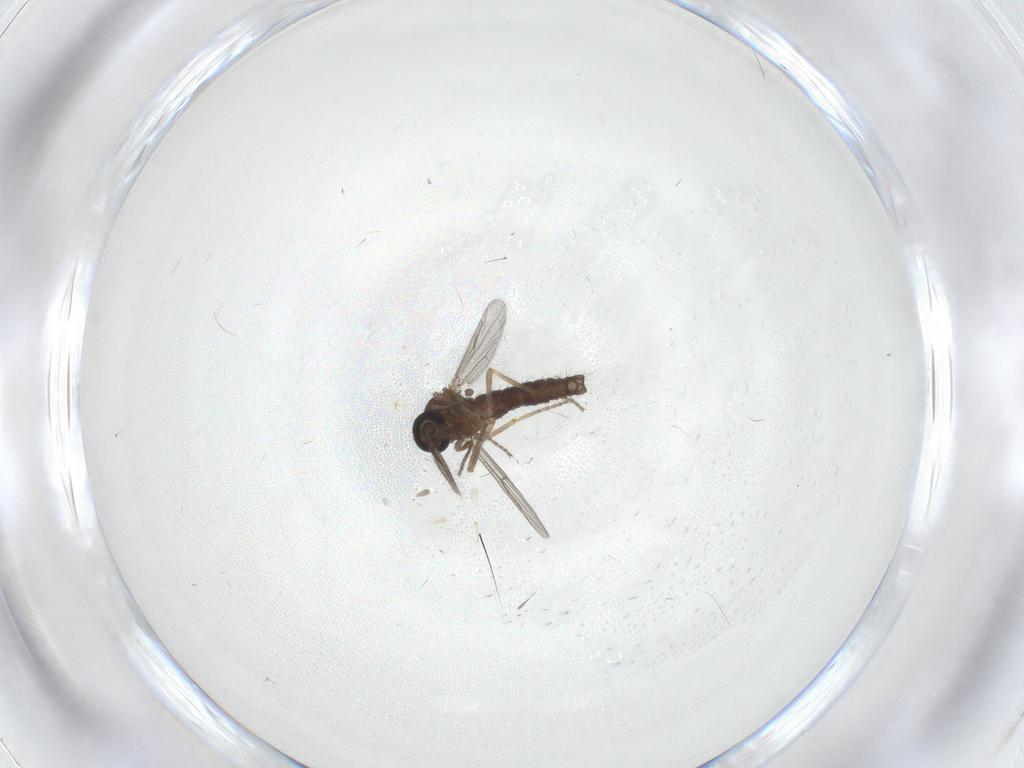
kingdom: Animalia
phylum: Arthropoda
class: Insecta
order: Diptera
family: Ceratopogonidae
